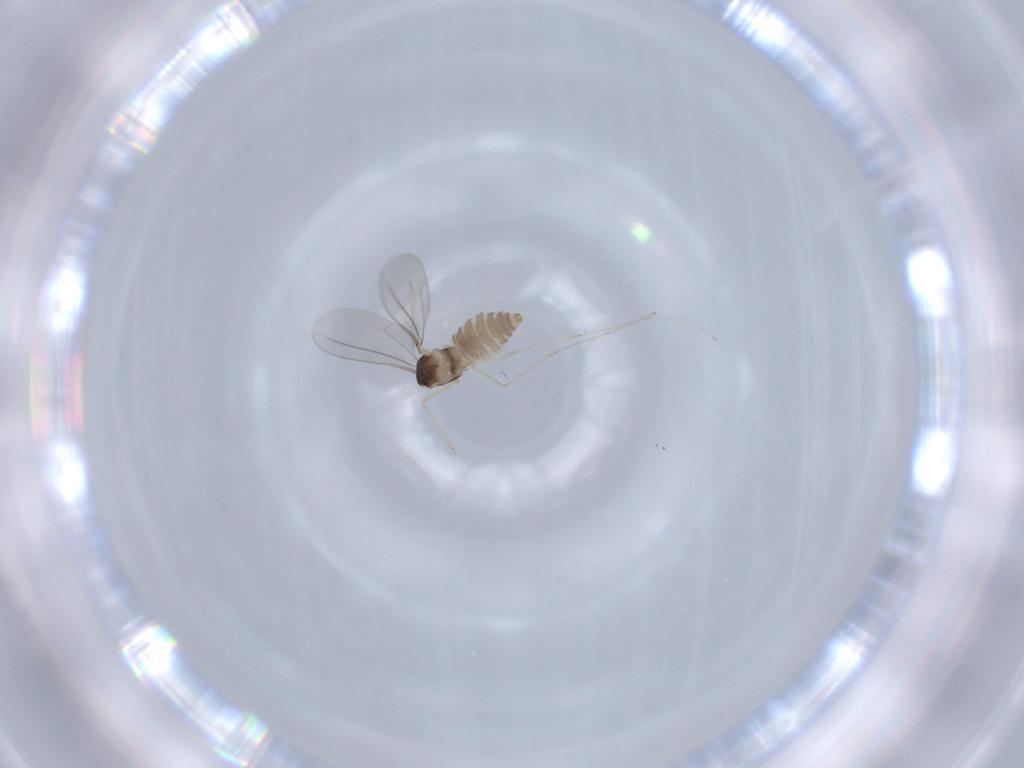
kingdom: Animalia
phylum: Arthropoda
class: Insecta
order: Diptera
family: Cecidomyiidae
